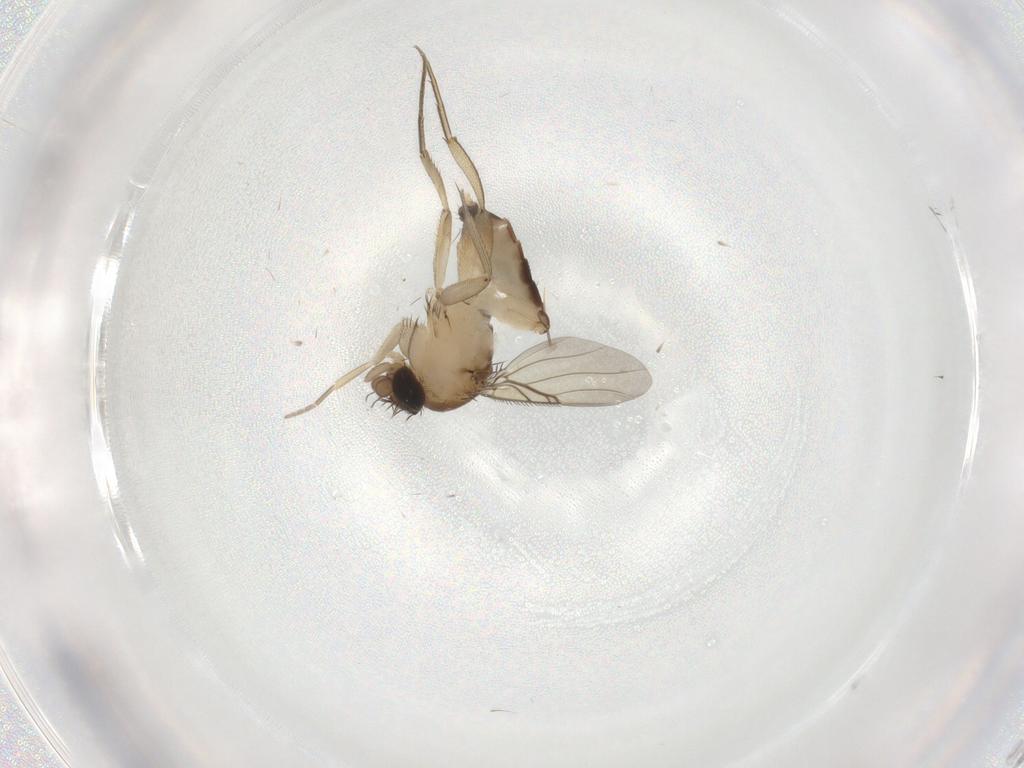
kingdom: Animalia
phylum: Arthropoda
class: Insecta
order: Diptera
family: Phoridae
